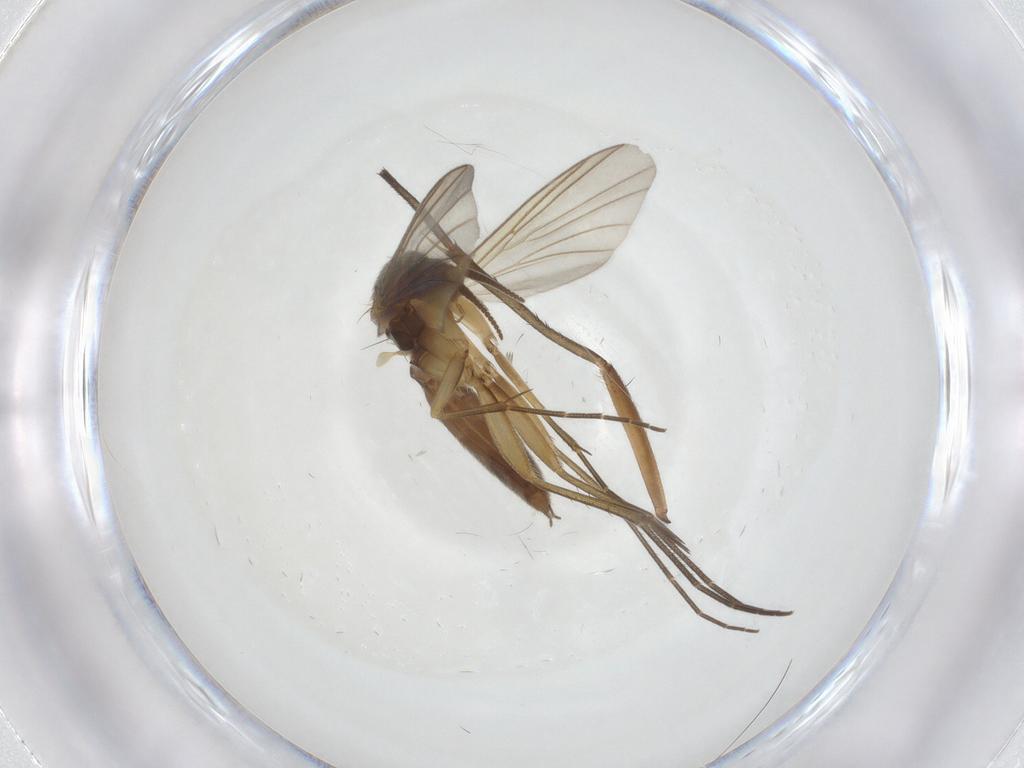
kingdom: Animalia
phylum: Arthropoda
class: Insecta
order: Diptera
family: Mycetophilidae
